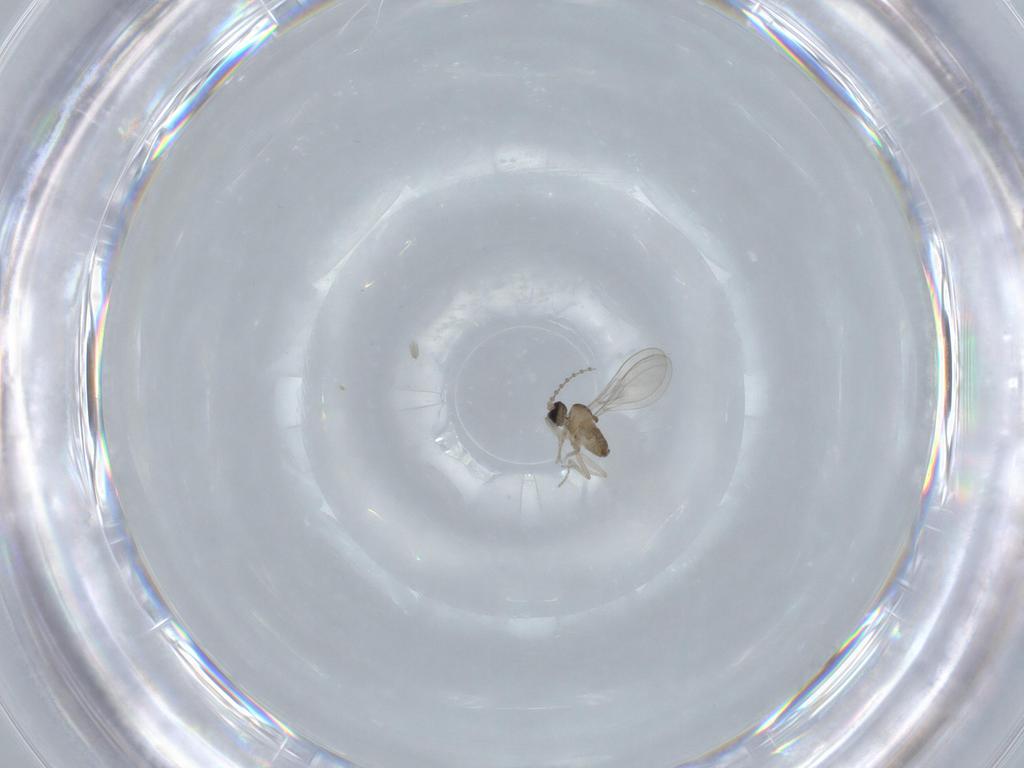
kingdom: Animalia
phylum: Arthropoda
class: Insecta
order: Diptera
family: Cecidomyiidae
